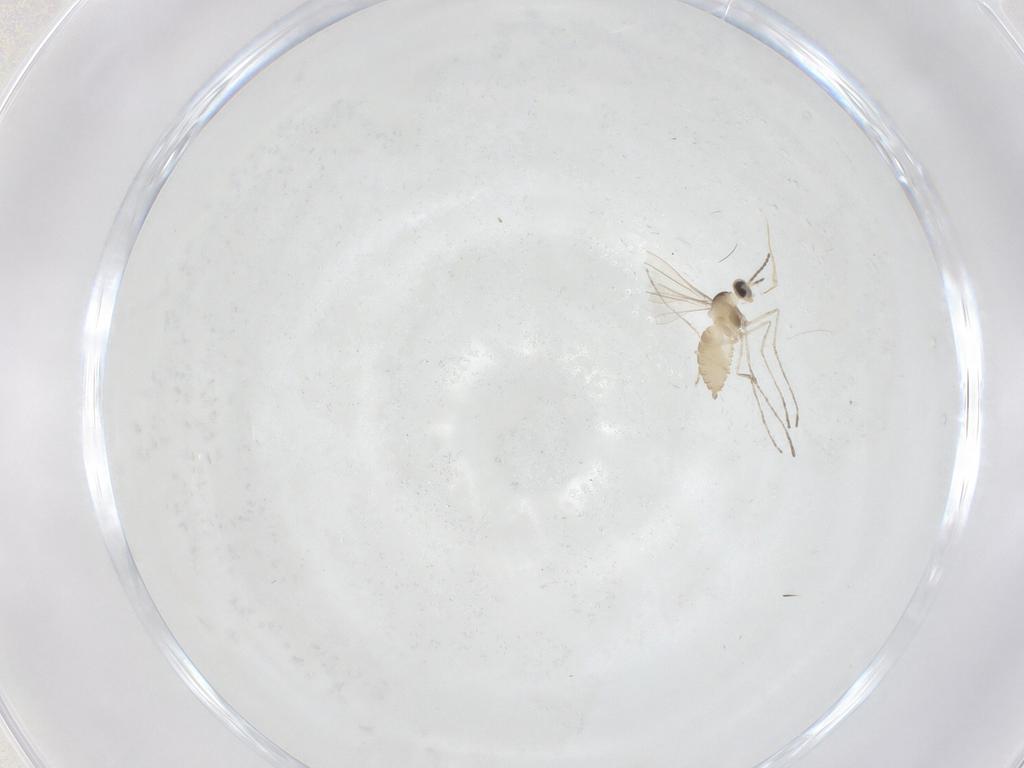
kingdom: Animalia
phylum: Arthropoda
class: Insecta
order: Diptera
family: Cecidomyiidae
